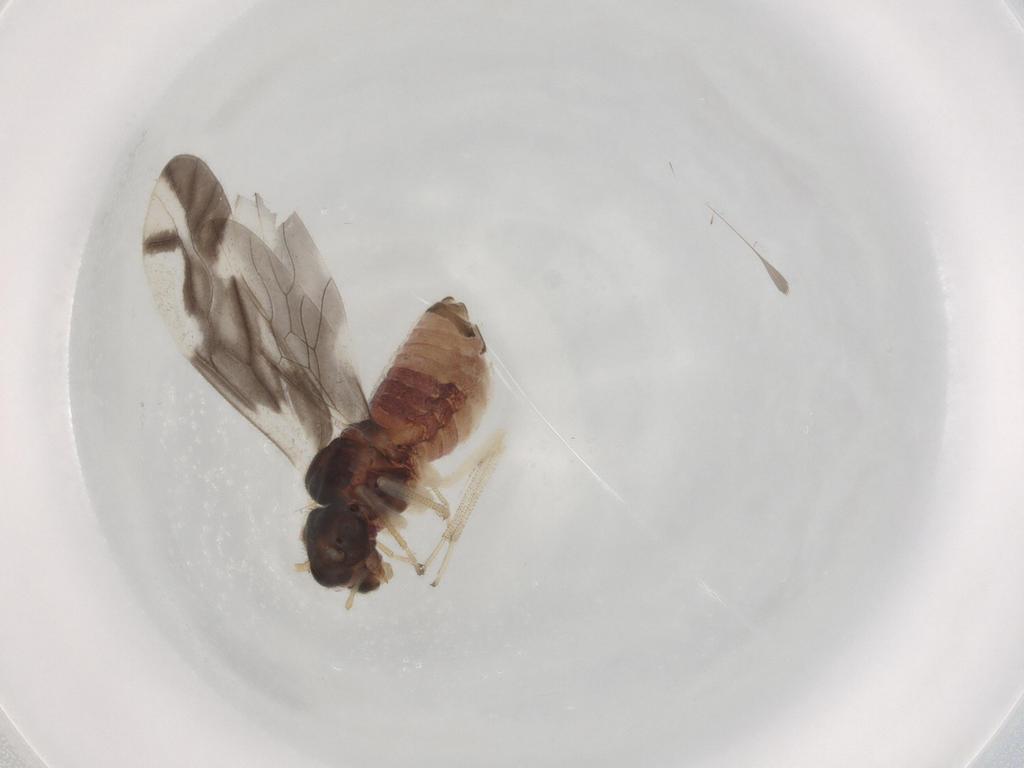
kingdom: Animalia
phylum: Arthropoda
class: Insecta
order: Psocodea
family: Caeciliusidae
